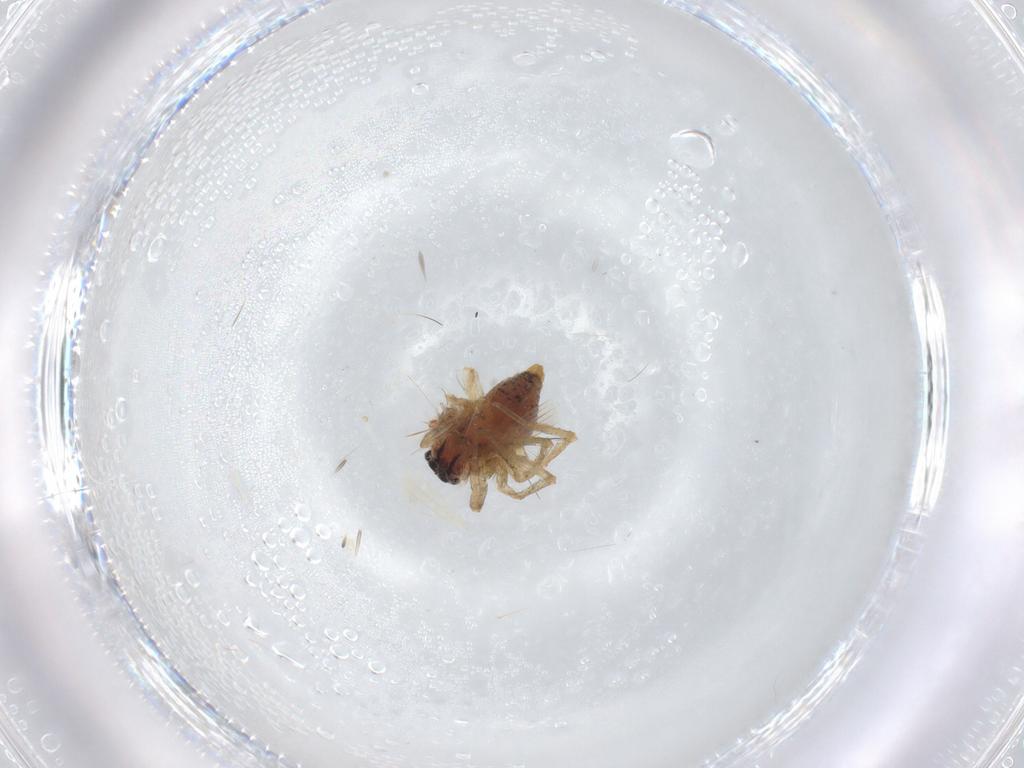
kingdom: Animalia
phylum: Arthropoda
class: Arachnida
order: Araneae
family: Oxyopidae
